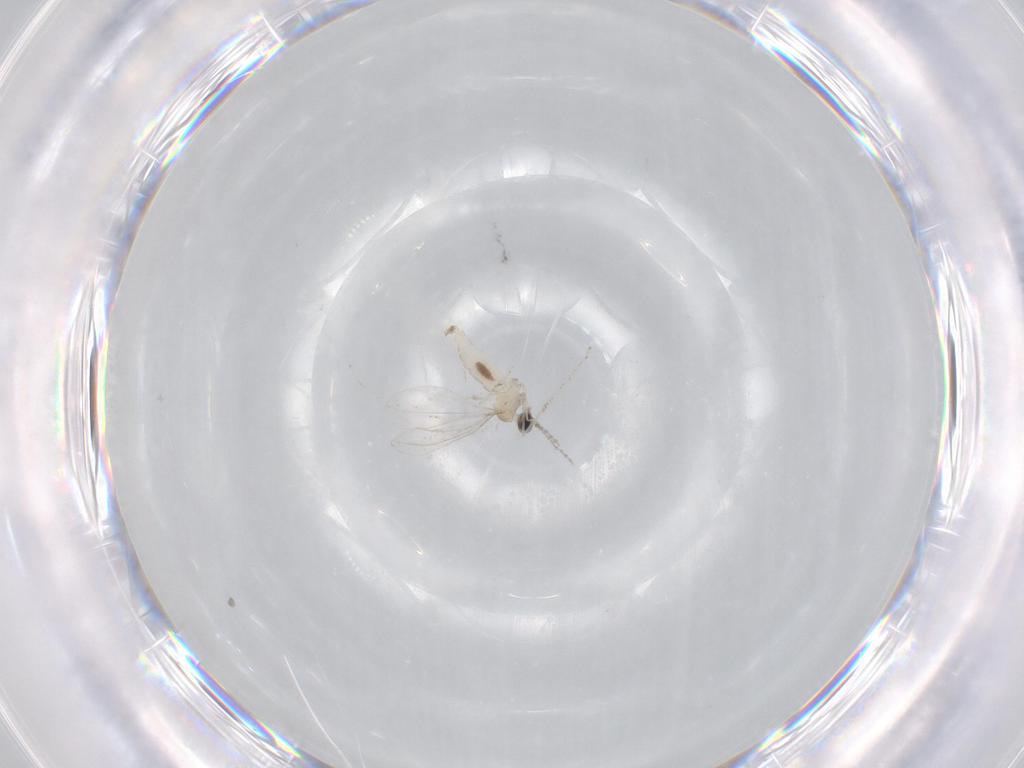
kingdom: Animalia
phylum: Arthropoda
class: Insecta
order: Diptera
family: Cecidomyiidae
